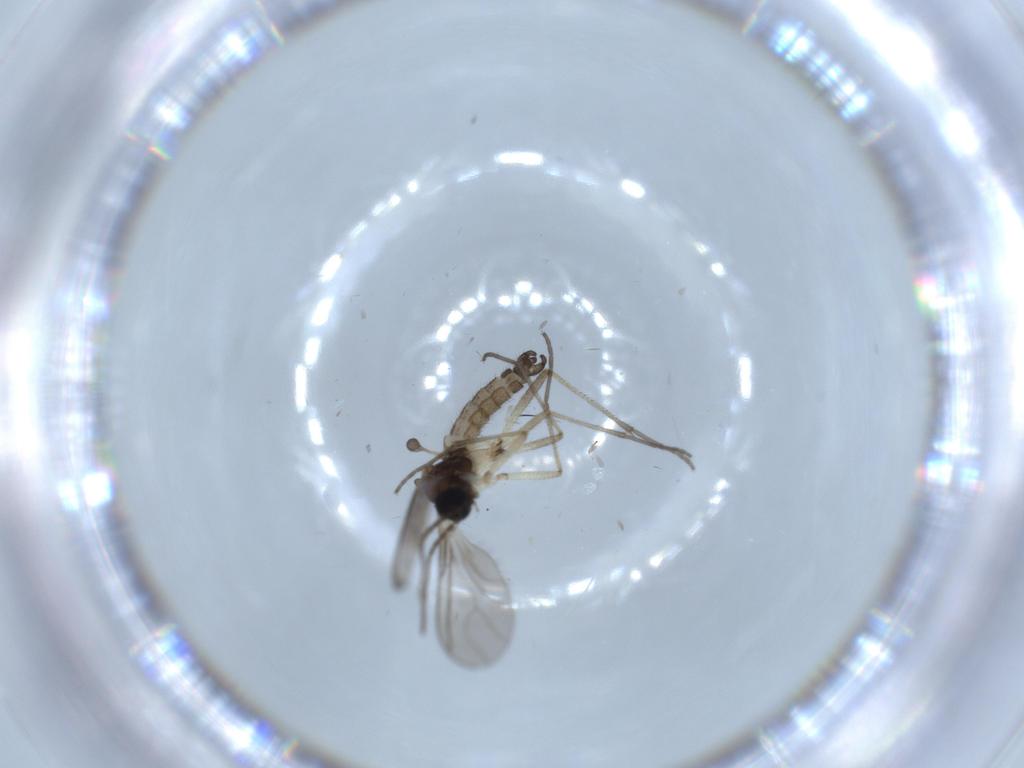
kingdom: Animalia
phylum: Arthropoda
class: Insecta
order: Diptera
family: Sciaridae
